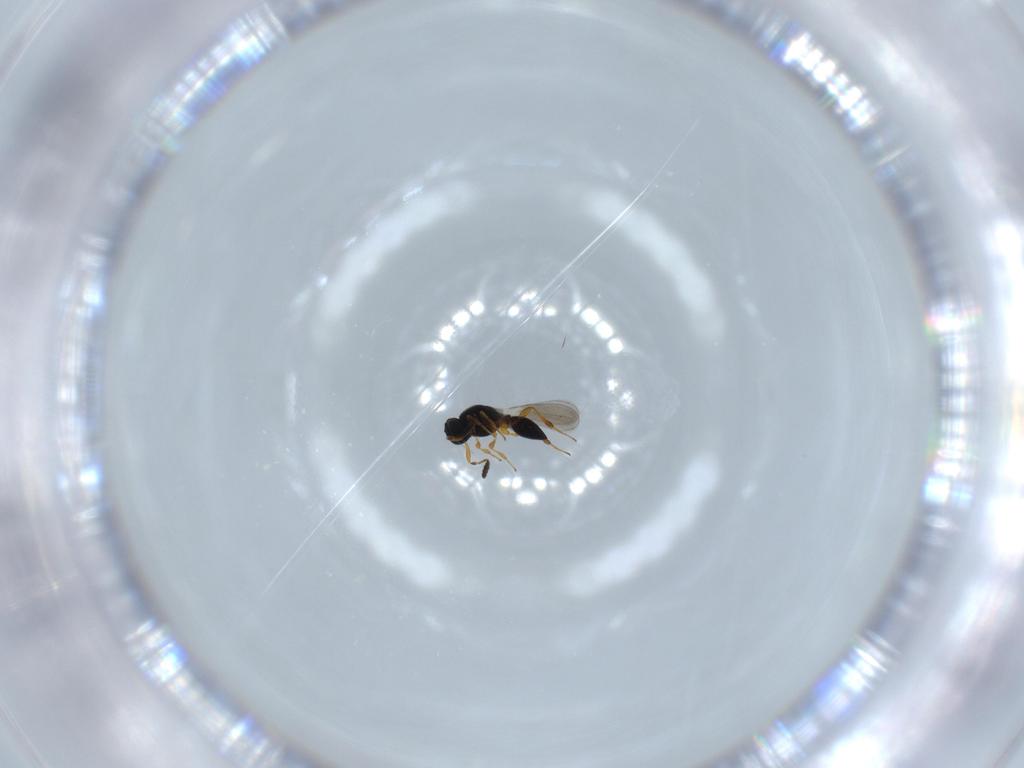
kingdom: Animalia
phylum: Arthropoda
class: Insecta
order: Hymenoptera
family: Platygastridae
